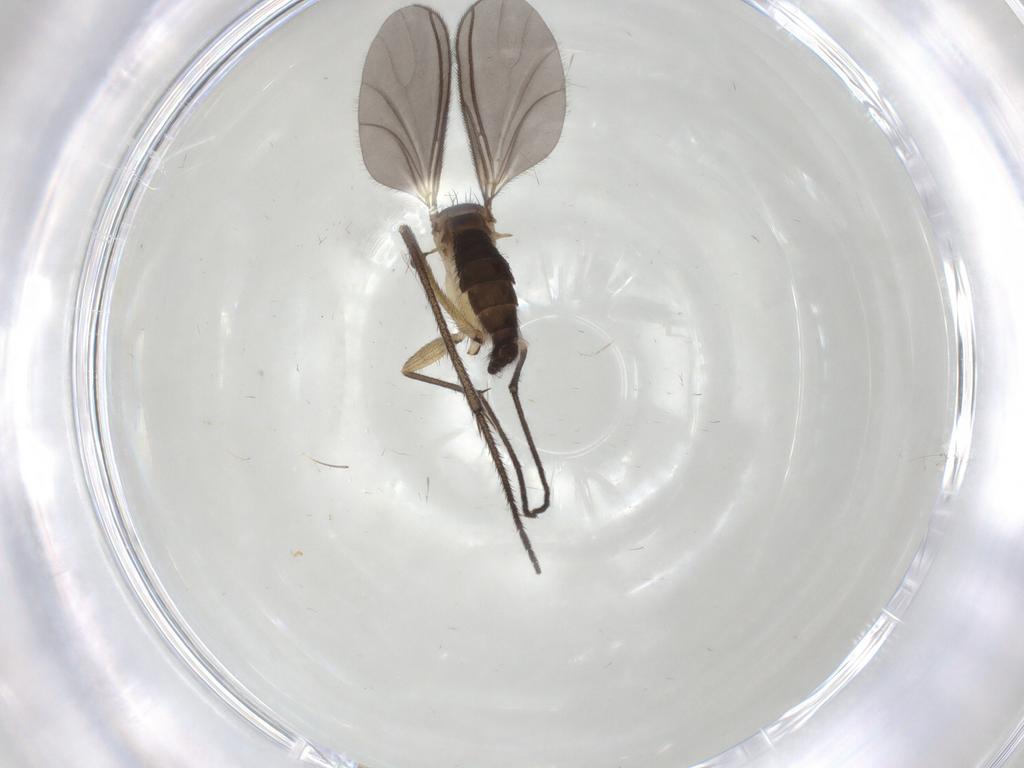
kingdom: Animalia
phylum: Arthropoda
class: Insecta
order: Diptera
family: Sciaridae
